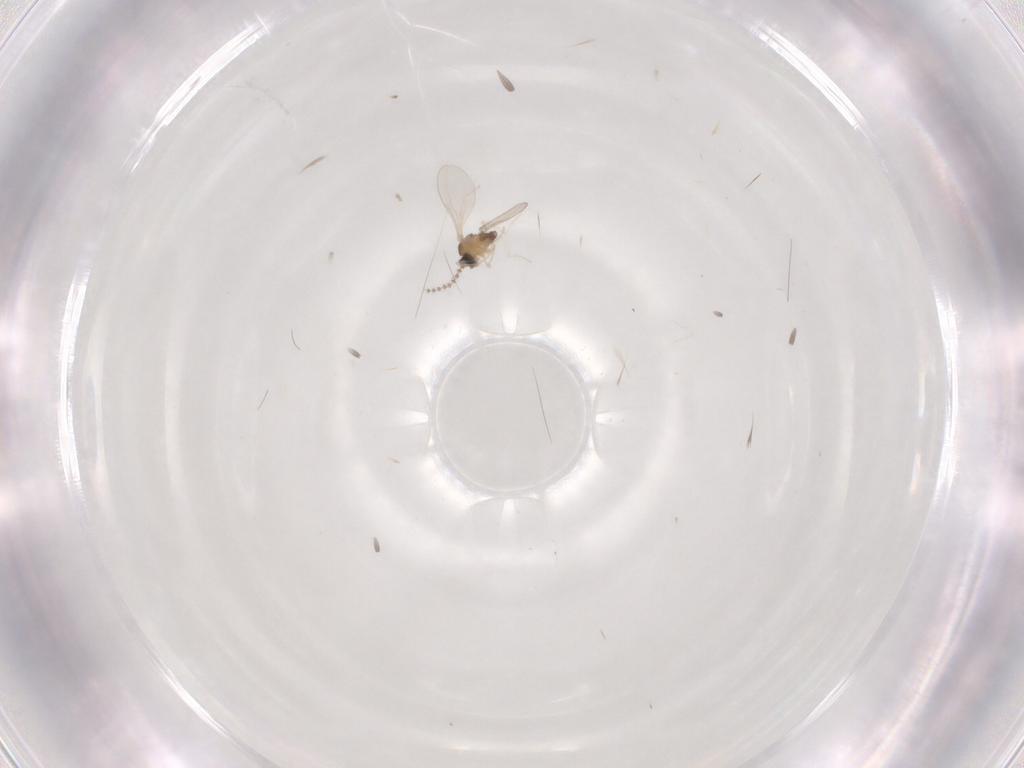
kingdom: Animalia
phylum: Arthropoda
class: Insecta
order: Diptera
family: Cecidomyiidae
